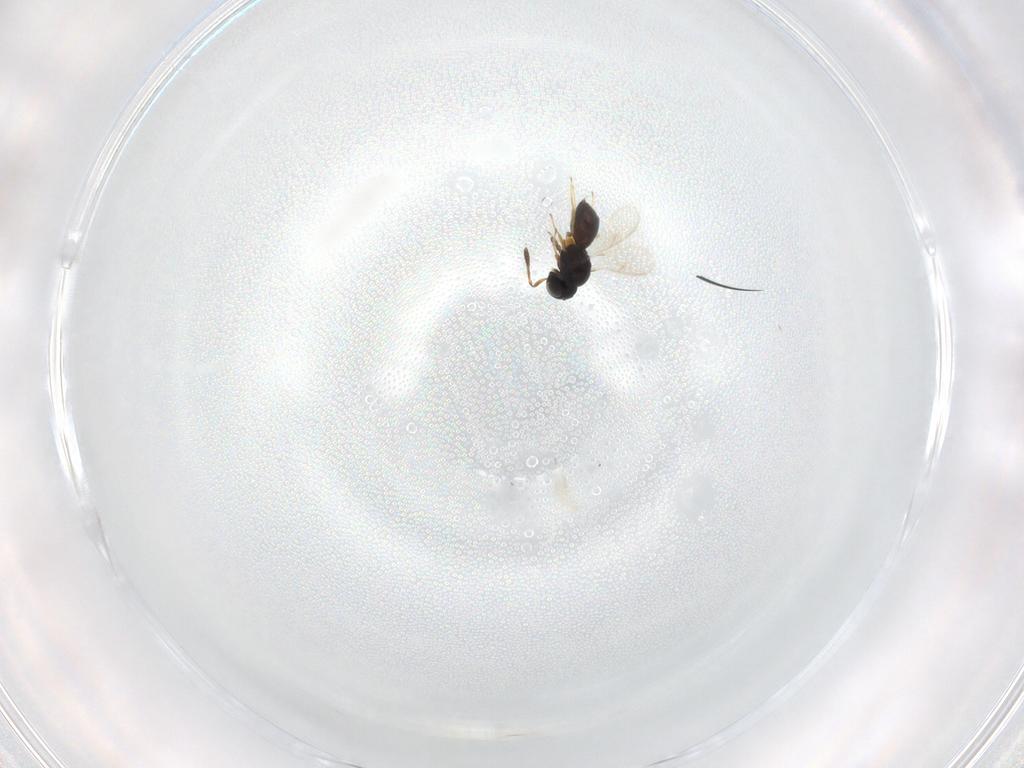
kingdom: Animalia
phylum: Arthropoda
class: Insecta
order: Hymenoptera
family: Scelionidae
